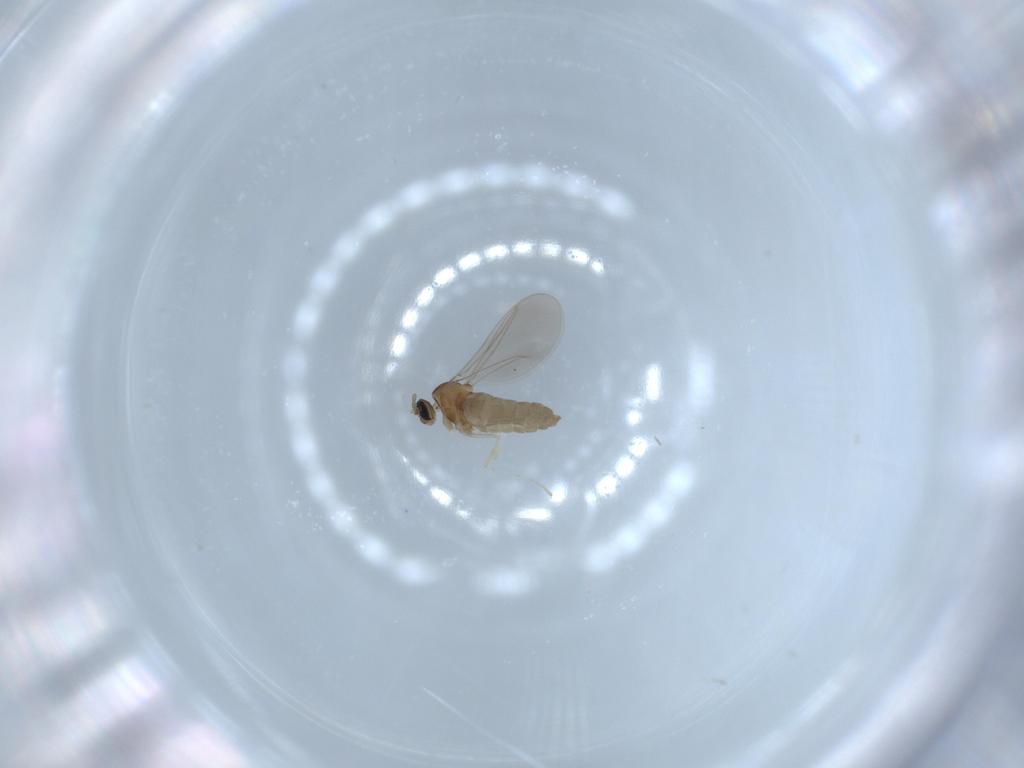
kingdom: Animalia
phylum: Arthropoda
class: Insecta
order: Diptera
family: Cecidomyiidae
